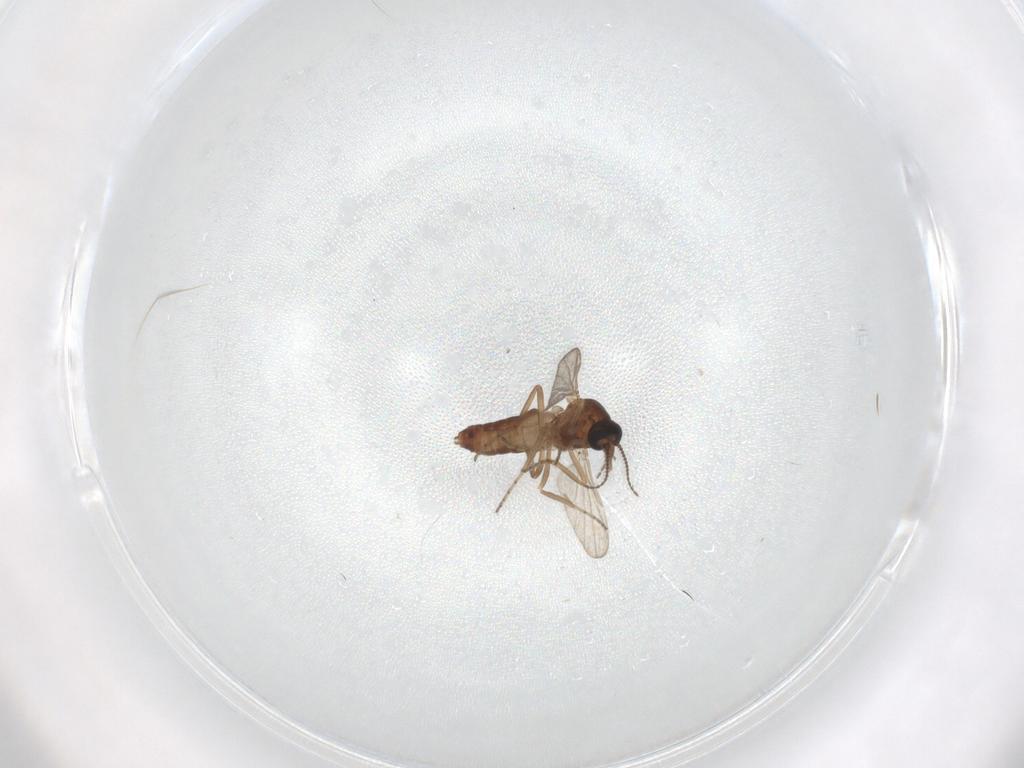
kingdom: Animalia
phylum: Arthropoda
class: Insecta
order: Diptera
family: Ceratopogonidae
